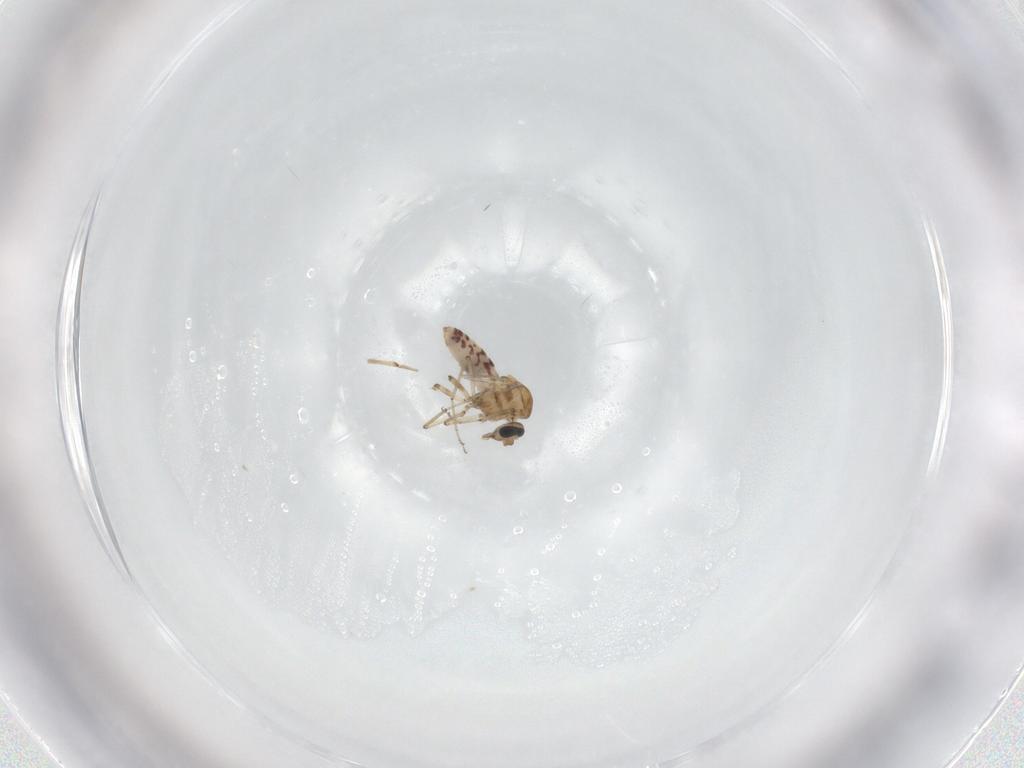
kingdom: Animalia
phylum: Arthropoda
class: Insecta
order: Diptera
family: Ceratopogonidae
